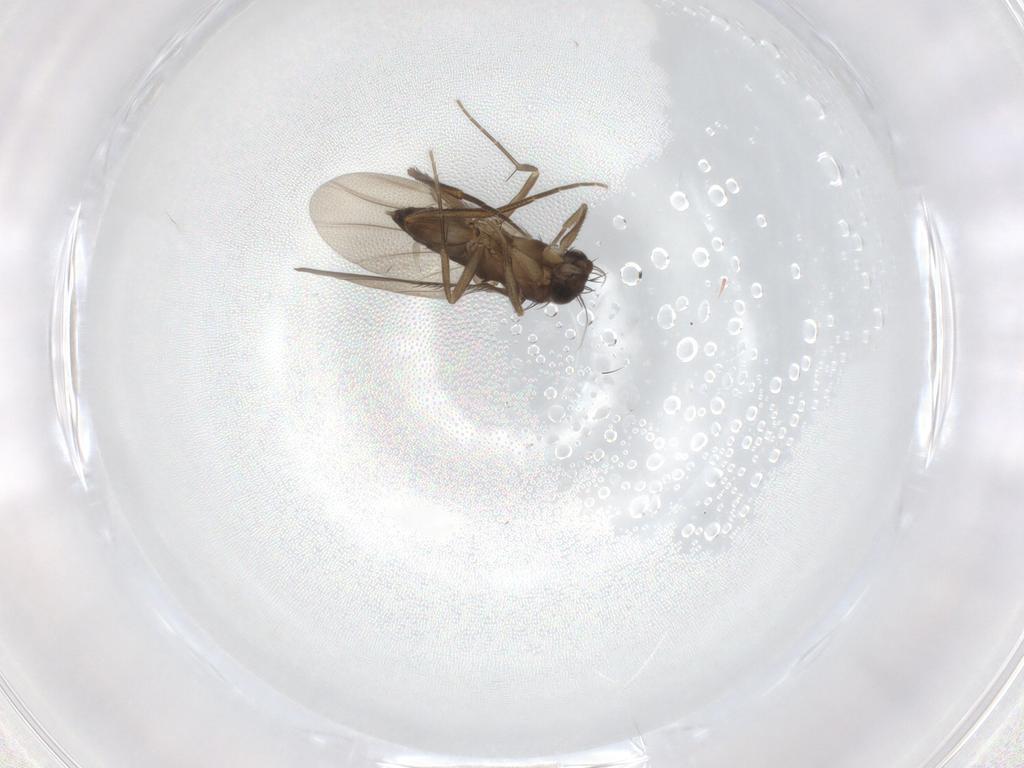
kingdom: Animalia
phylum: Arthropoda
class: Insecta
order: Diptera
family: Phoridae
